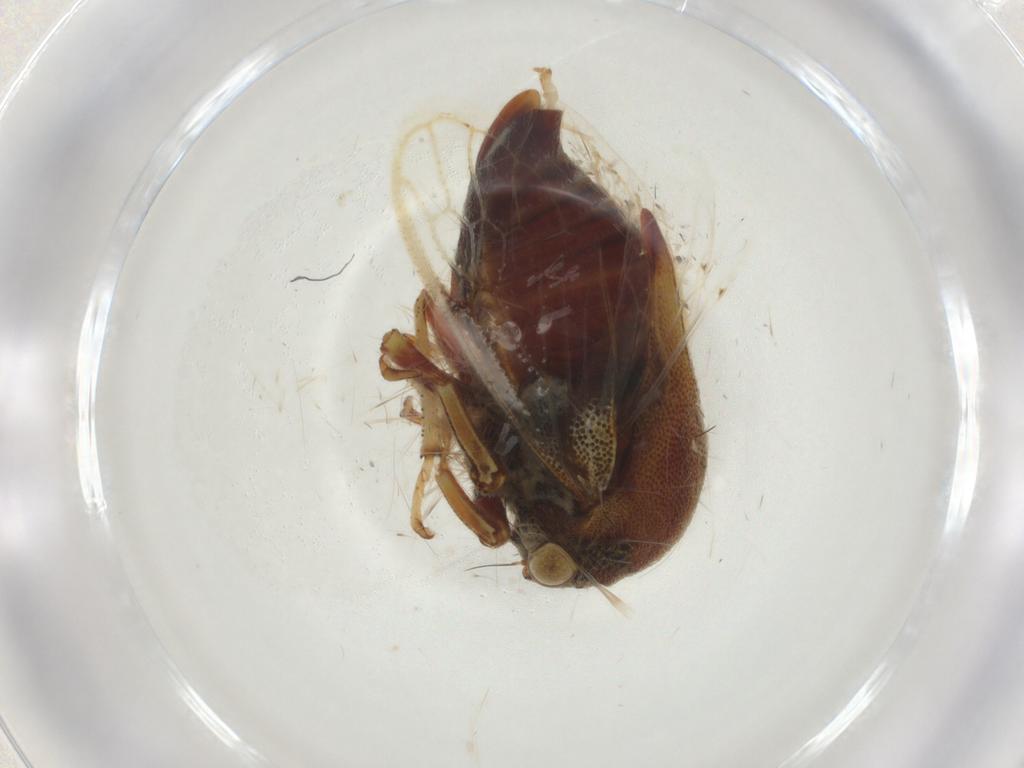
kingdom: Animalia
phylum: Arthropoda
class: Insecta
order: Hemiptera
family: Membracidae
